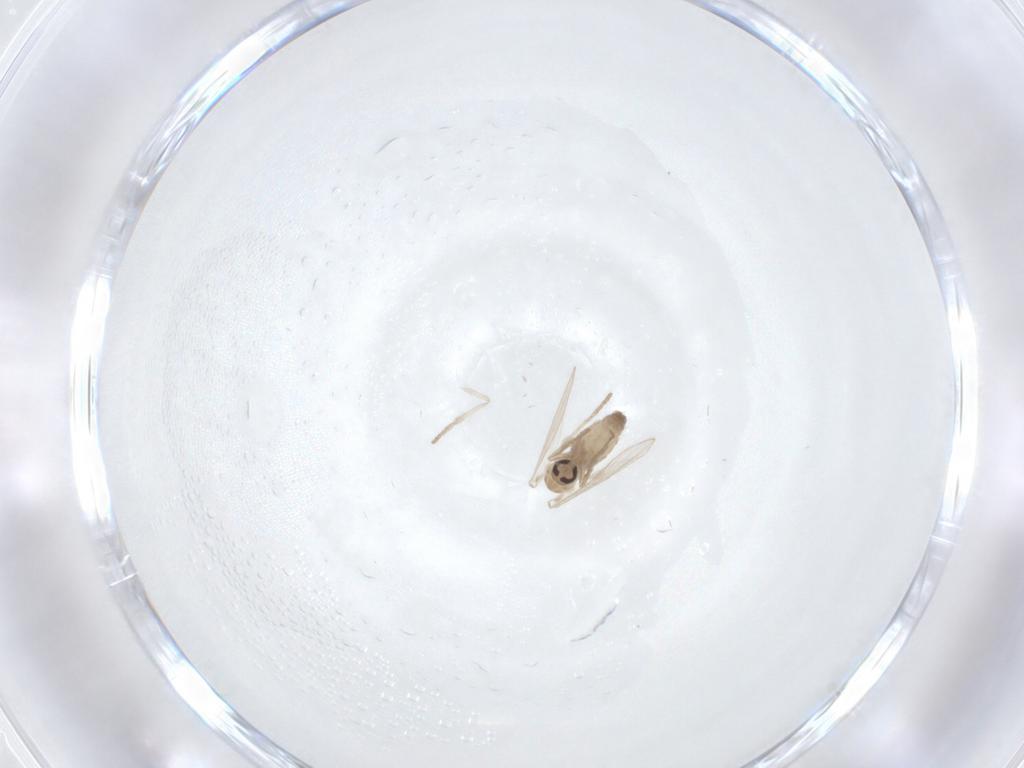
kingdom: Animalia
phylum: Arthropoda
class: Insecta
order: Diptera
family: Psychodidae
